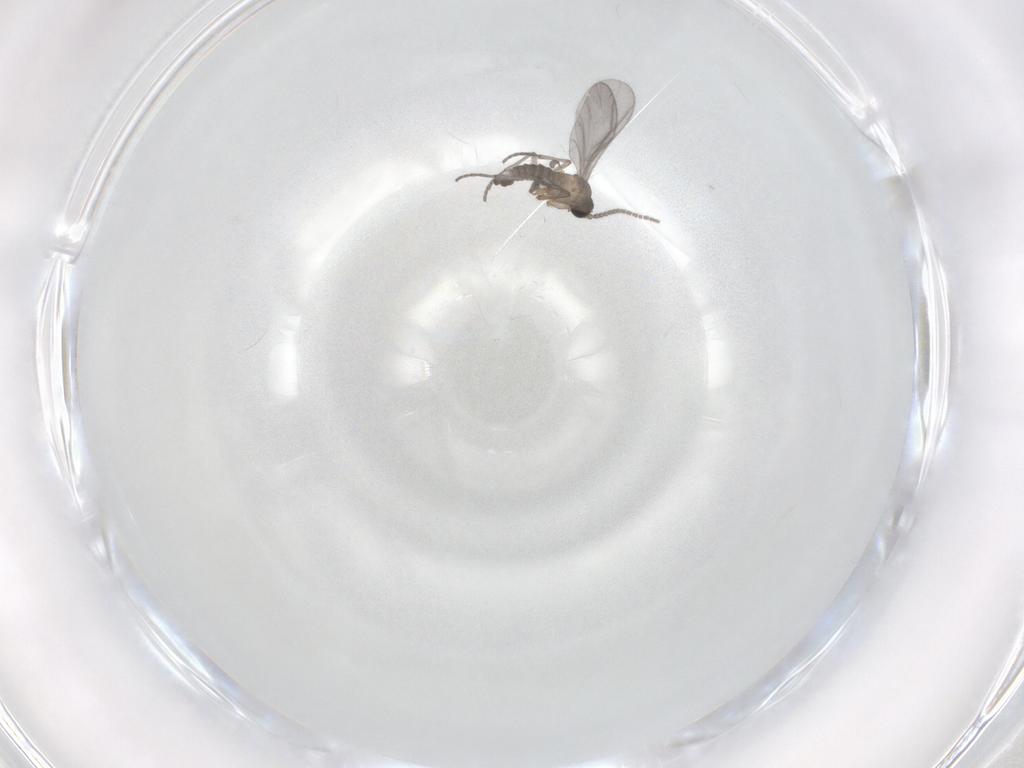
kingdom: Animalia
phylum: Arthropoda
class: Insecta
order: Diptera
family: Sciaridae
